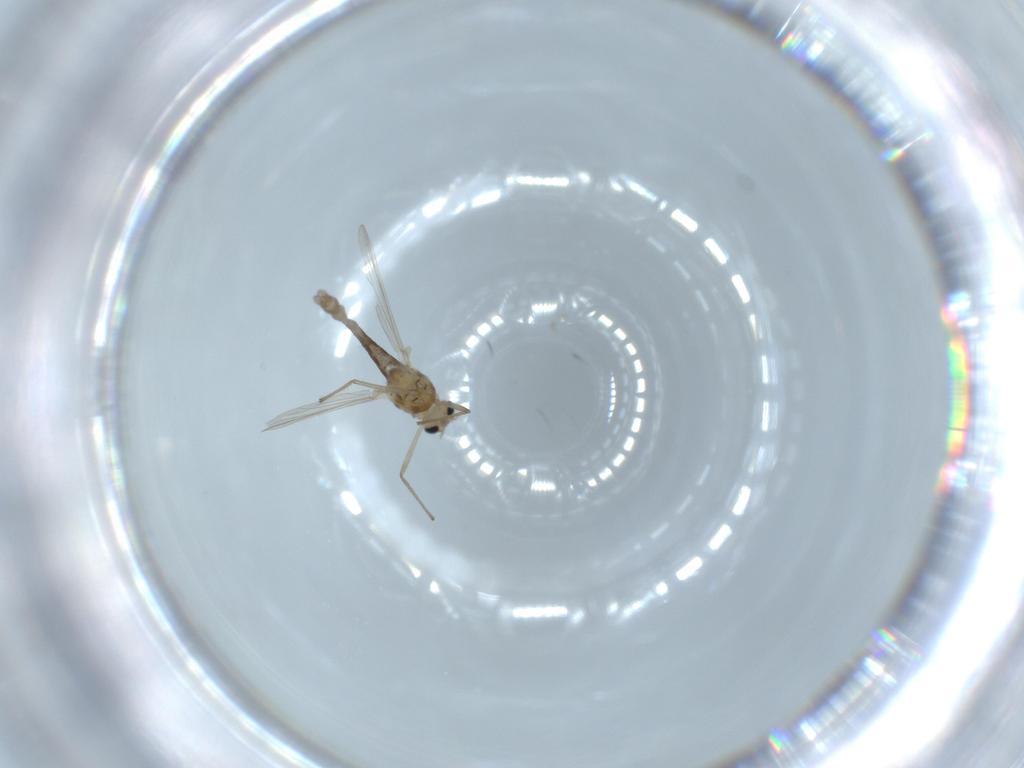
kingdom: Animalia
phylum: Arthropoda
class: Insecta
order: Diptera
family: Chironomidae
